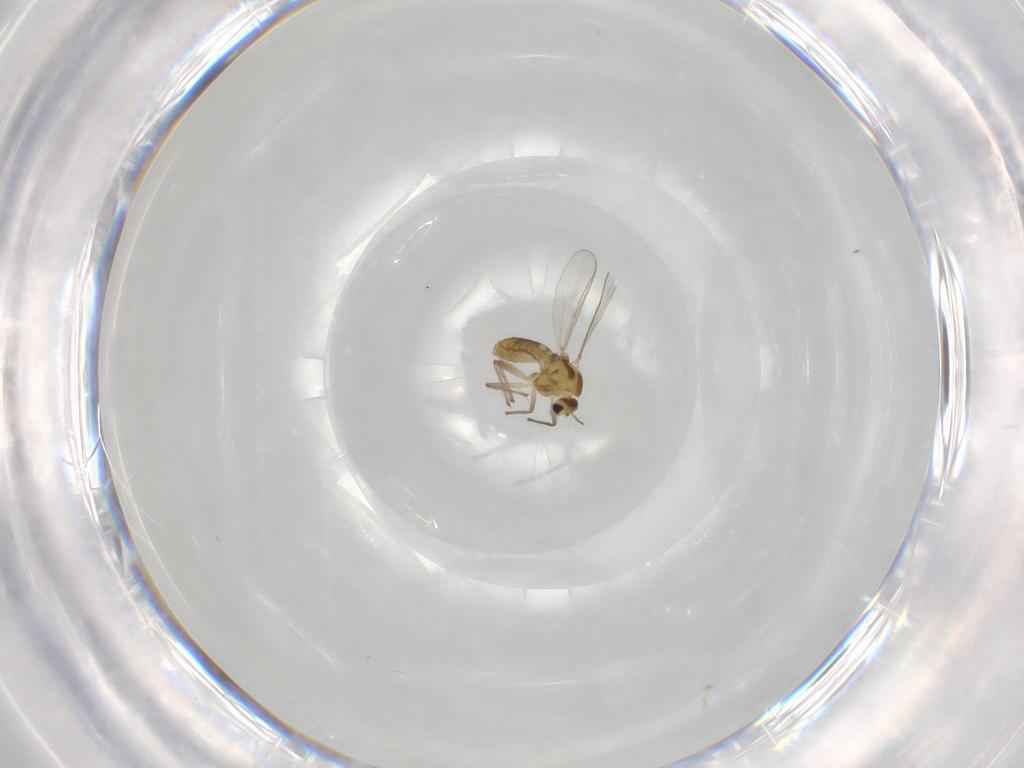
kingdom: Animalia
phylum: Arthropoda
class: Insecta
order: Diptera
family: Chironomidae
